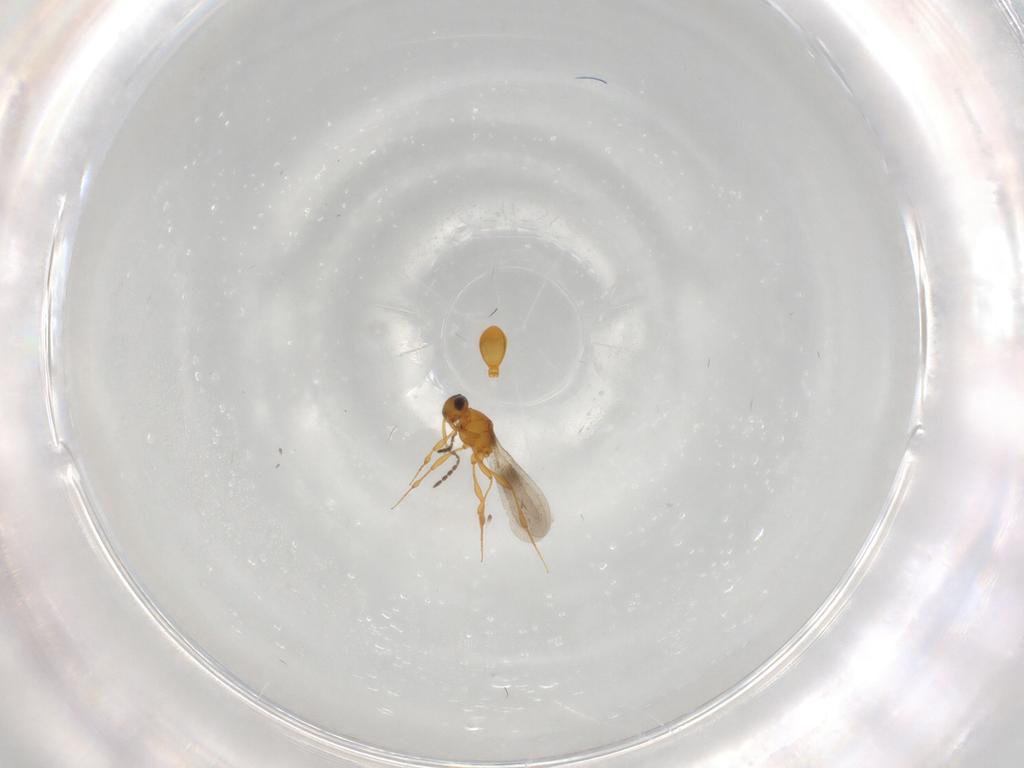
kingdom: Animalia
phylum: Arthropoda
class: Insecta
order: Hymenoptera
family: Platygastridae
